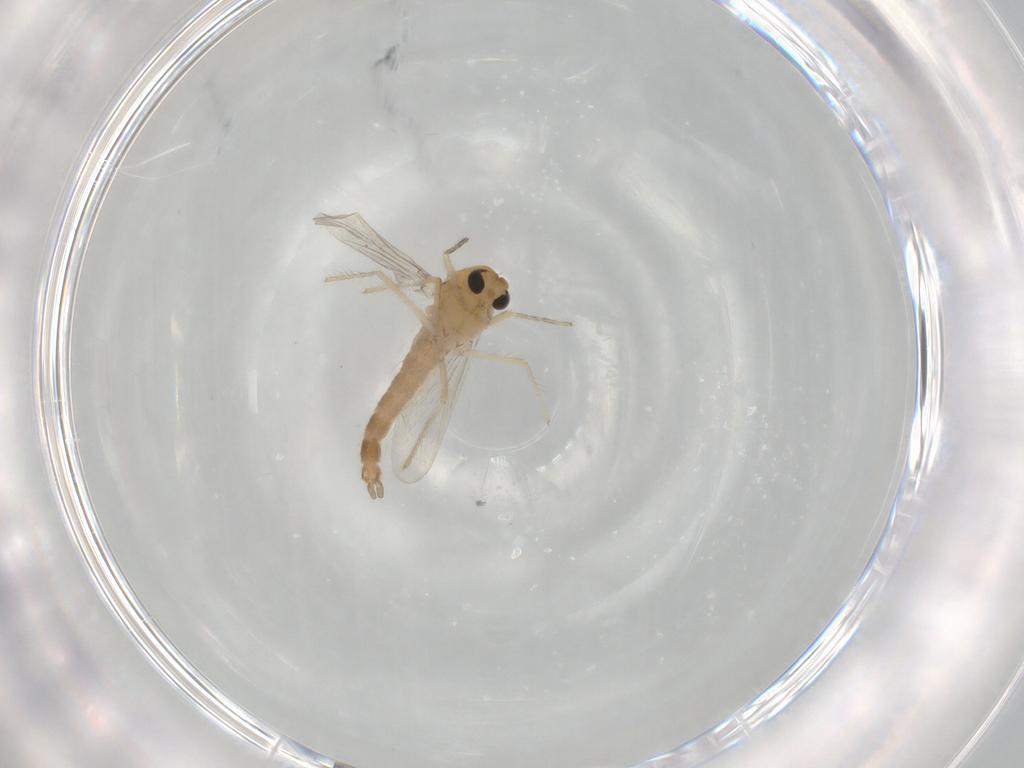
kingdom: Animalia
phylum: Arthropoda
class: Insecta
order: Diptera
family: Chironomidae
